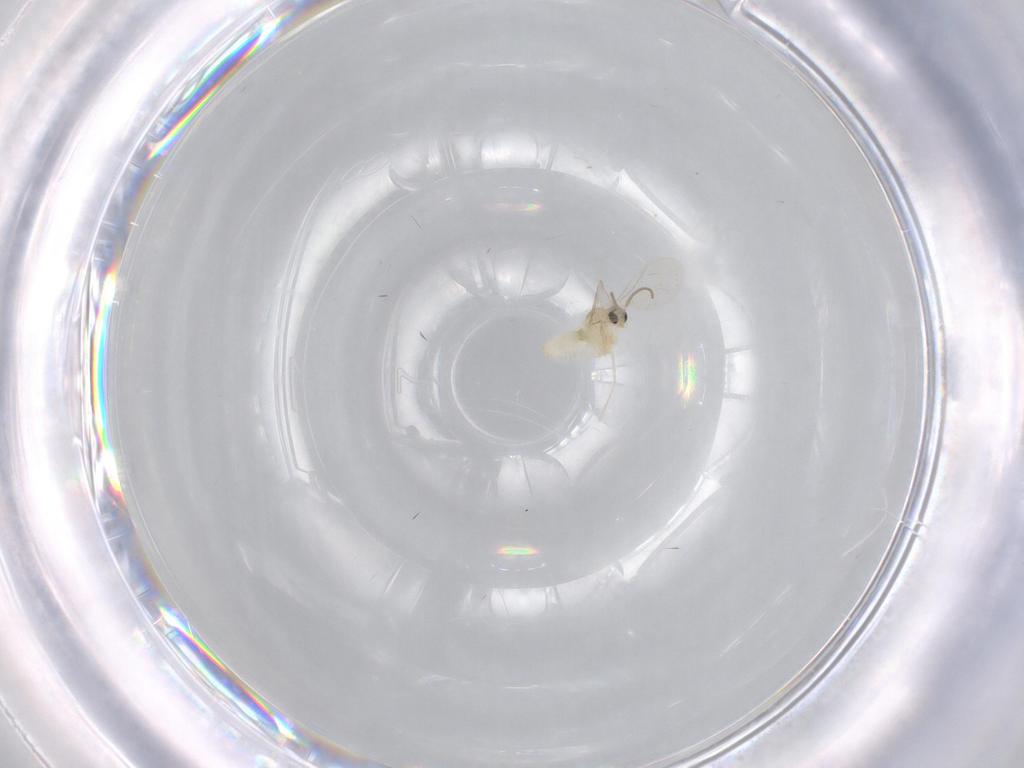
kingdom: Animalia
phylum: Arthropoda
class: Insecta
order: Diptera
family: Cecidomyiidae
